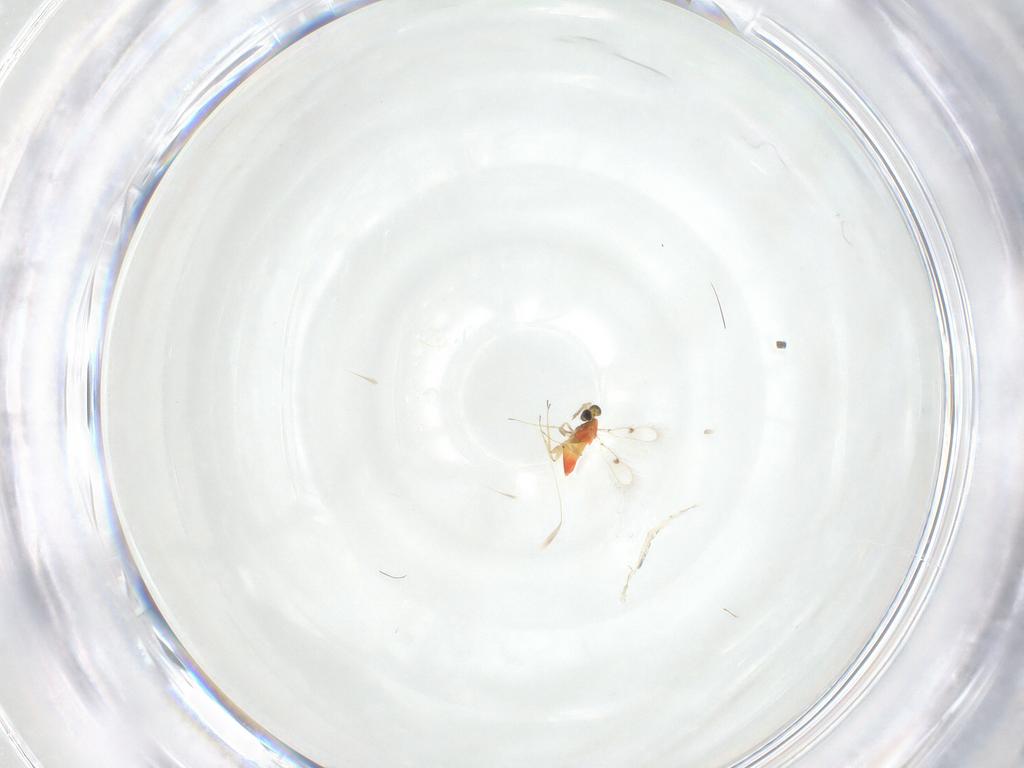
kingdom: Animalia
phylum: Arthropoda
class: Insecta
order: Hymenoptera
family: Trichogrammatidae
